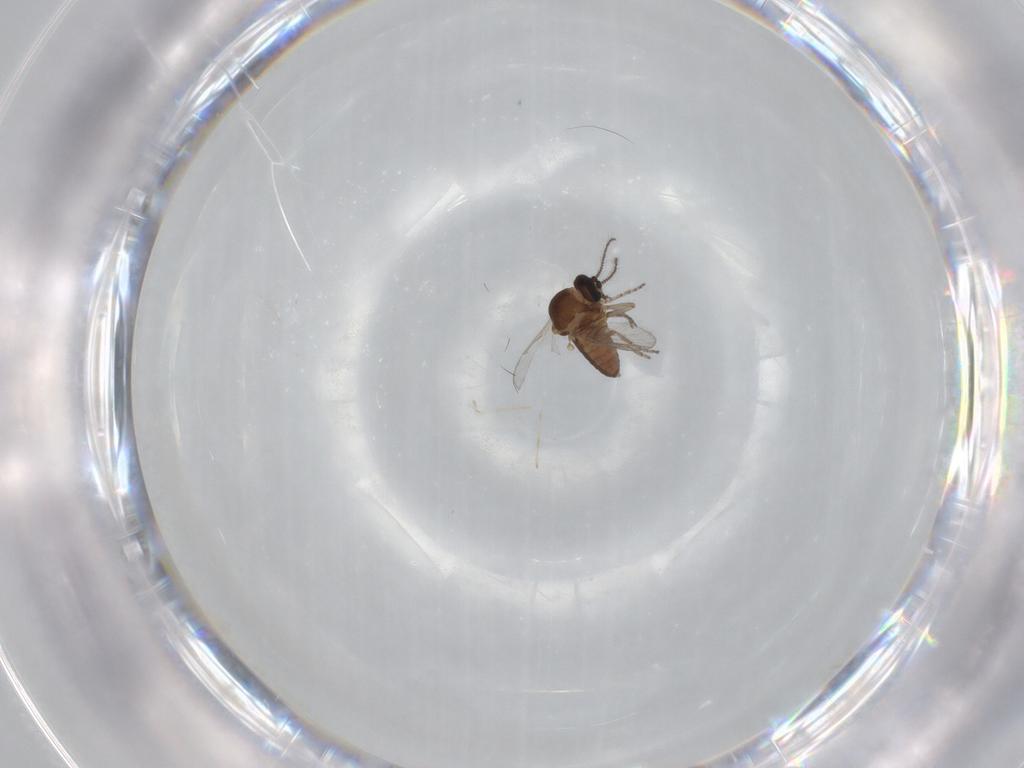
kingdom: Animalia
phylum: Arthropoda
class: Insecta
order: Diptera
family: Cecidomyiidae
